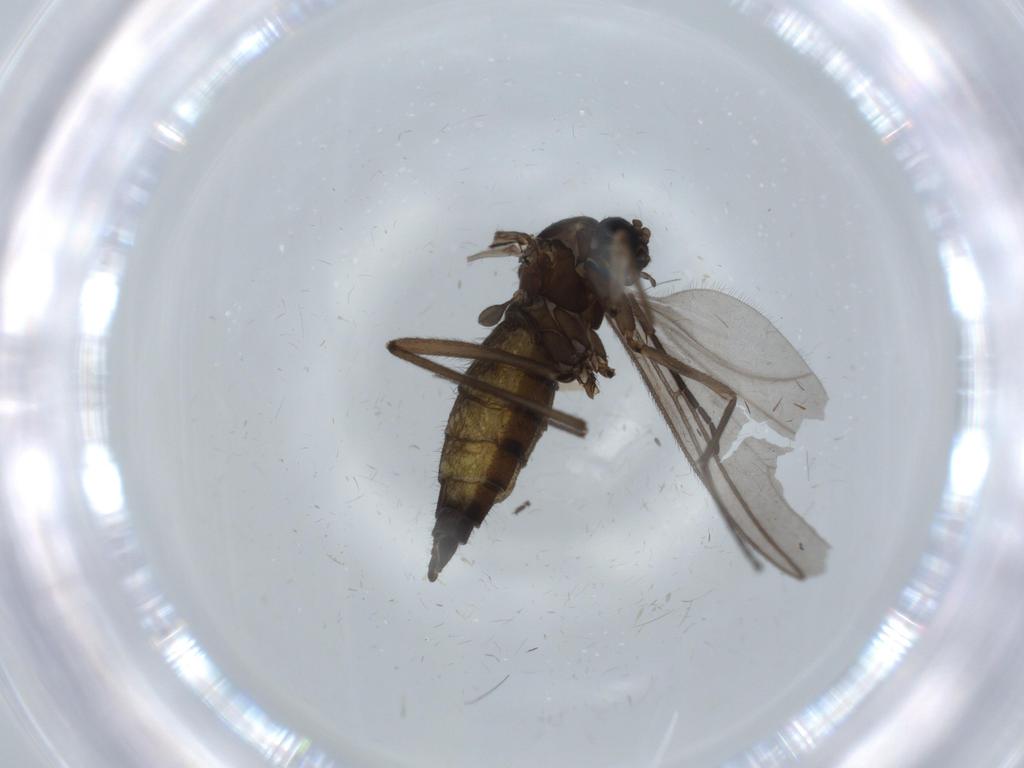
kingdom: Animalia
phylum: Arthropoda
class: Insecta
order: Diptera
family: Sciaridae
